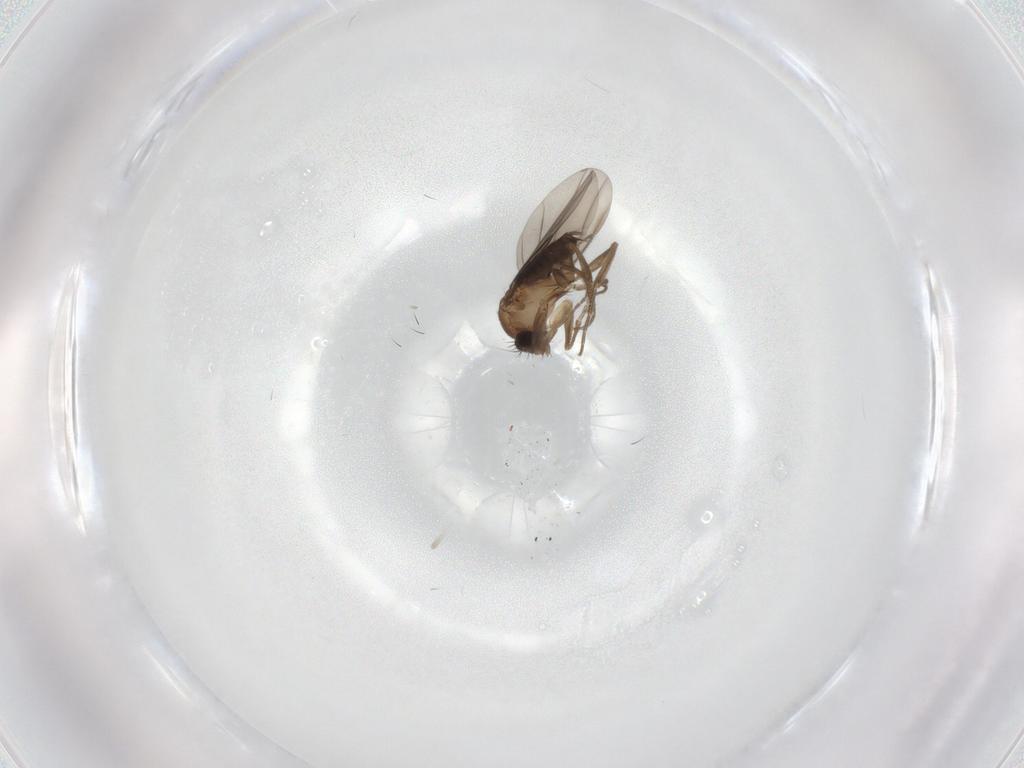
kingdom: Animalia
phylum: Arthropoda
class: Insecta
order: Diptera
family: Phoridae
